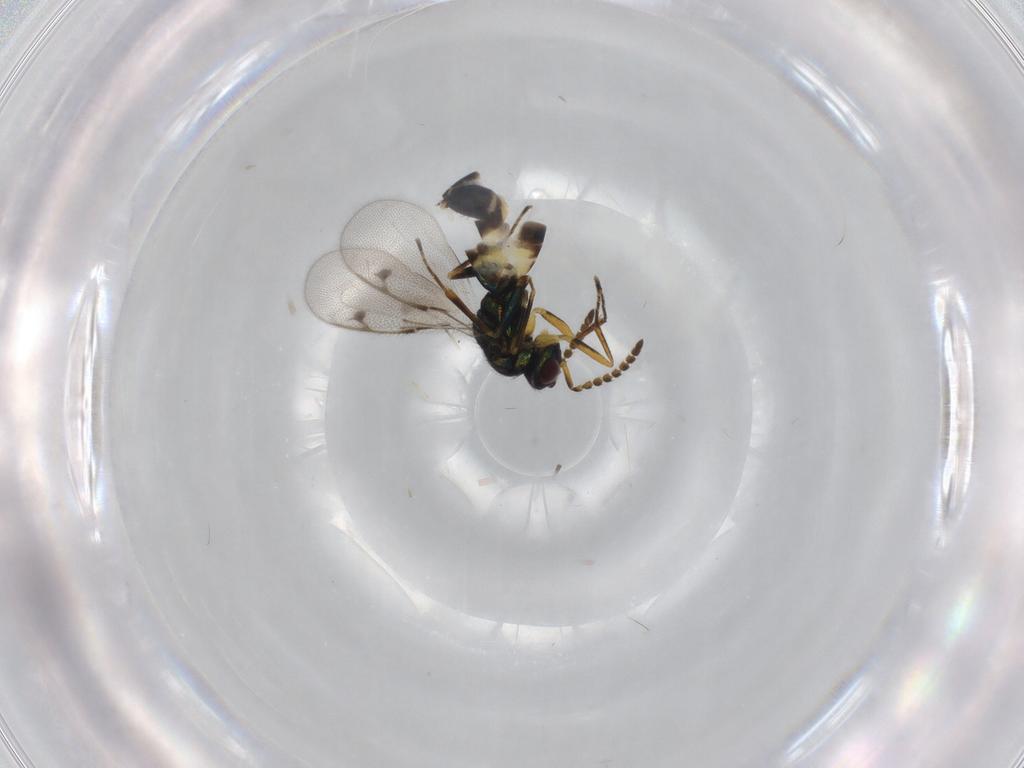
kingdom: Animalia
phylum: Arthropoda
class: Insecta
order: Hymenoptera
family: Pirenidae
